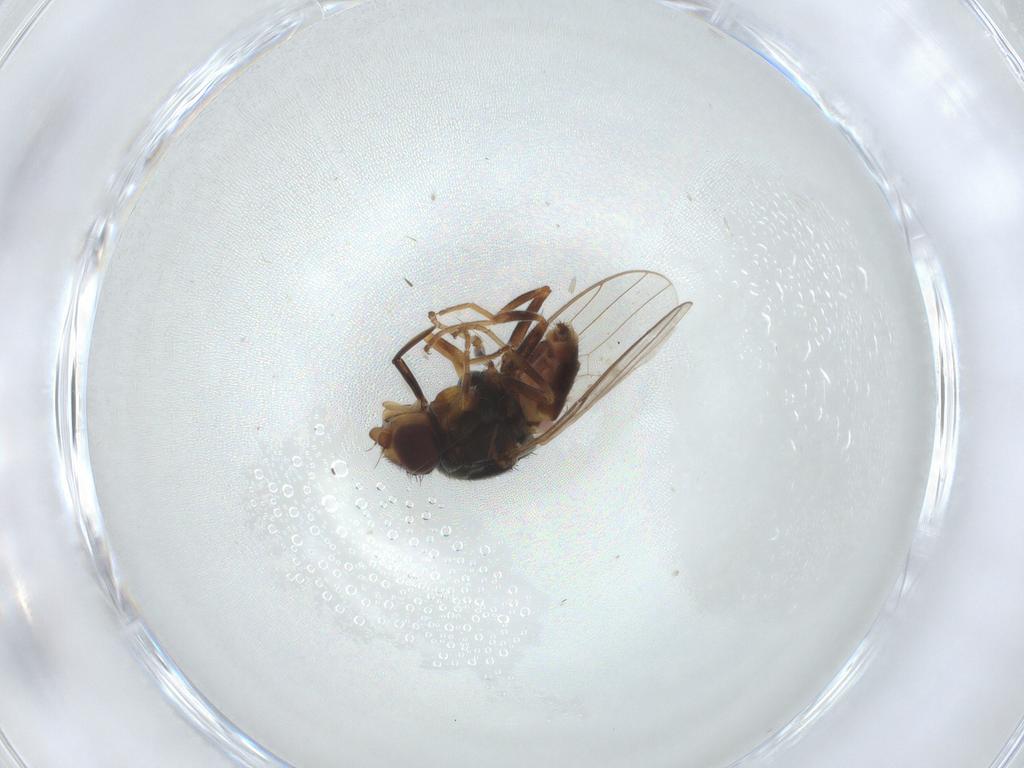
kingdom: Animalia
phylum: Arthropoda
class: Insecta
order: Diptera
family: Chloropidae
